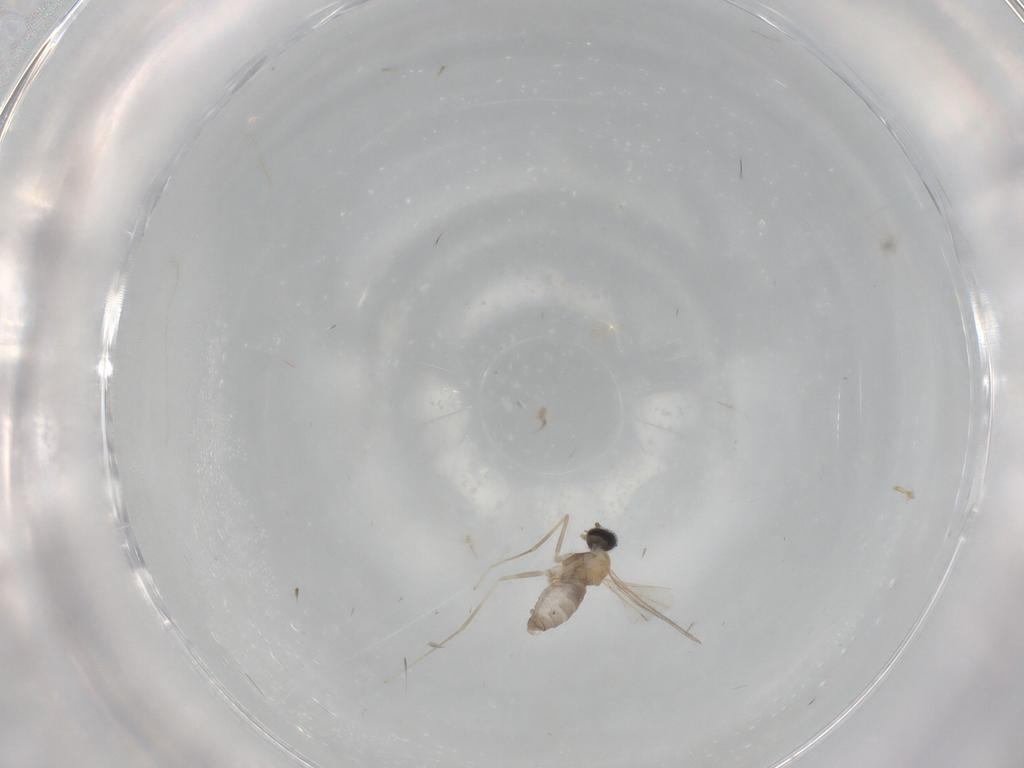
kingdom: Animalia
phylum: Arthropoda
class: Insecta
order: Diptera
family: Cecidomyiidae
